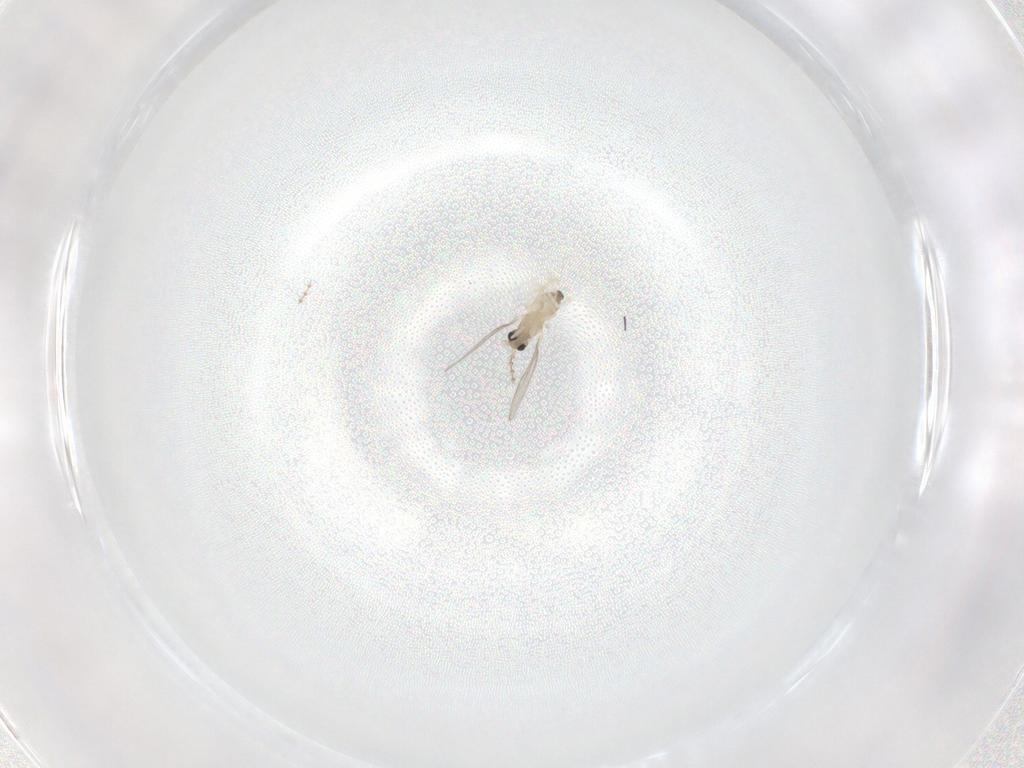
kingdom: Animalia
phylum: Arthropoda
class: Insecta
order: Diptera
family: Cecidomyiidae
